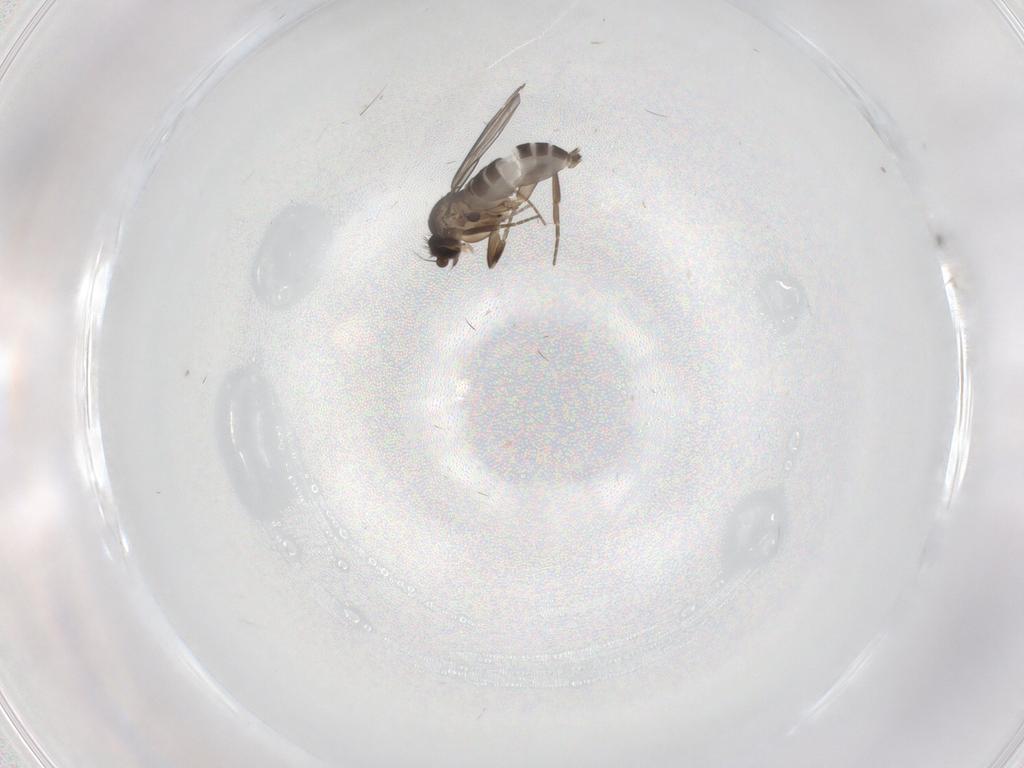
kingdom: Animalia
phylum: Arthropoda
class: Insecta
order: Diptera
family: Phoridae
